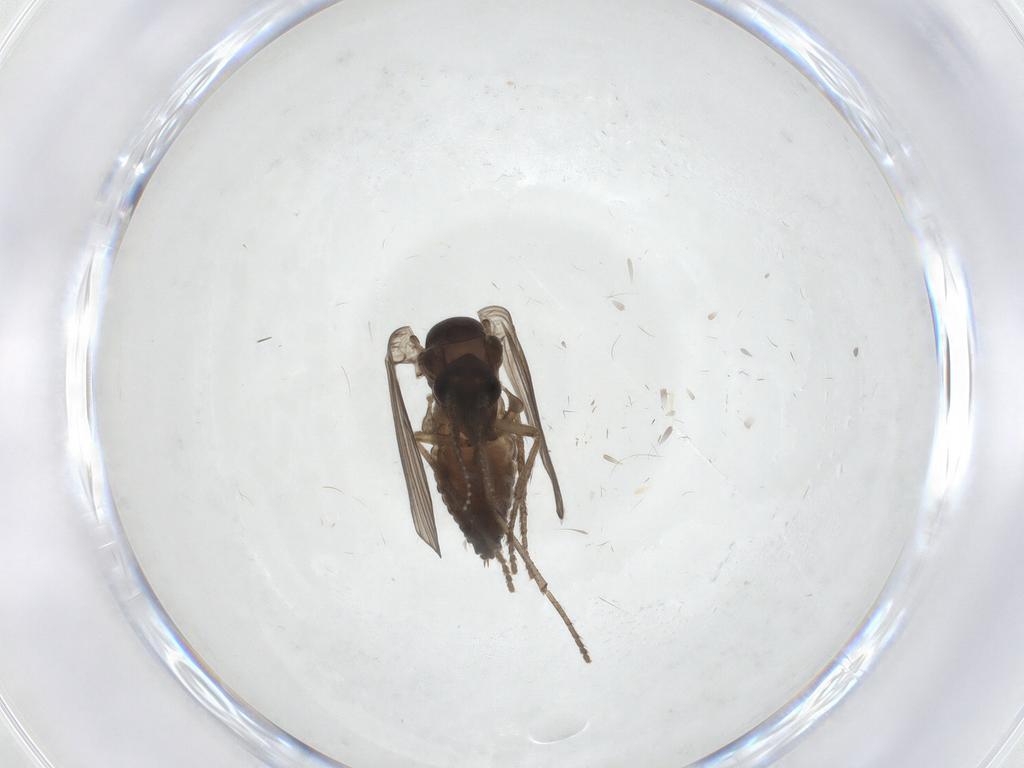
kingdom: Animalia
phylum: Arthropoda
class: Insecta
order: Diptera
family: Psychodidae
